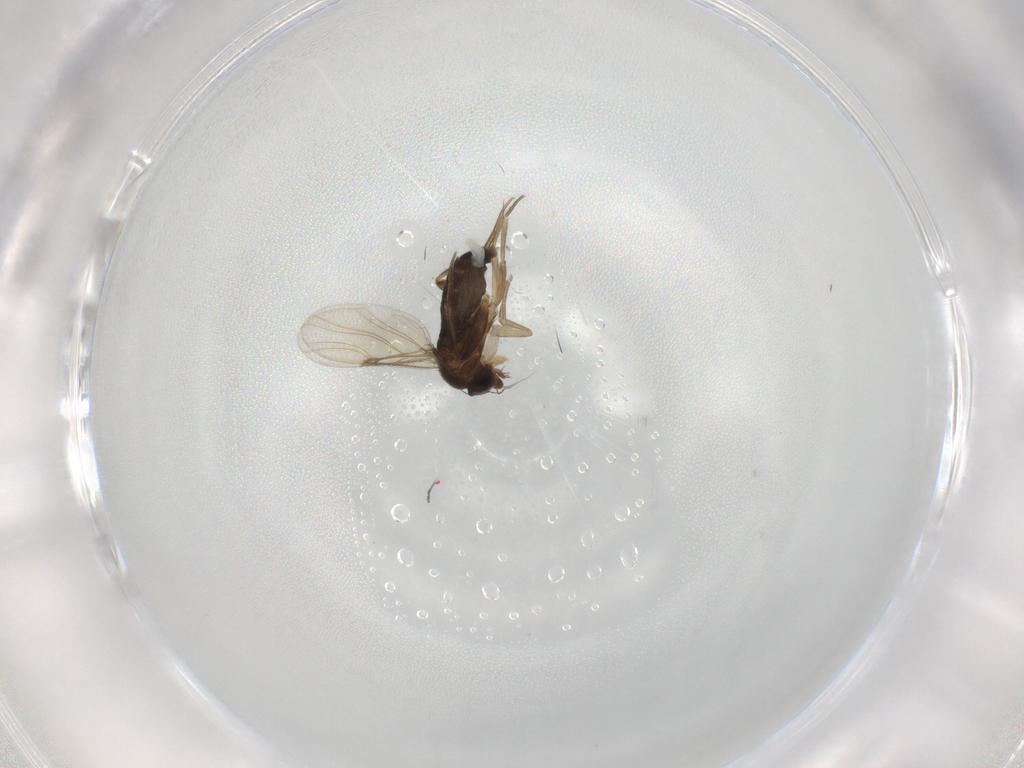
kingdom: Animalia
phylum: Arthropoda
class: Insecta
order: Diptera
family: Phoridae
